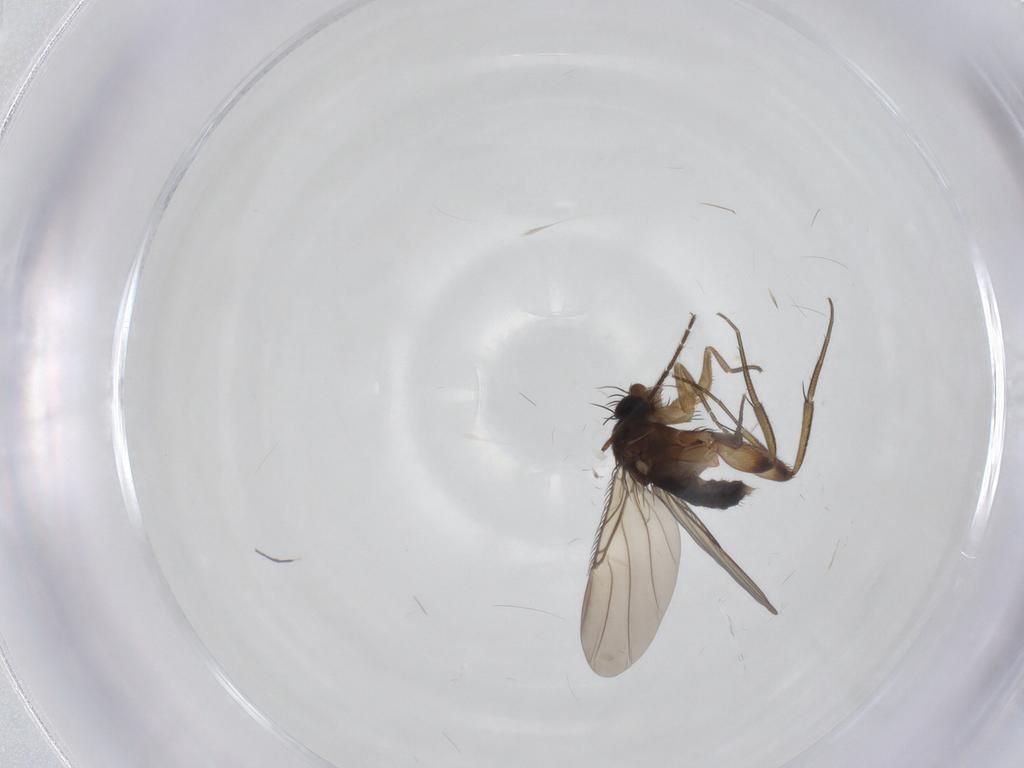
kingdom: Animalia
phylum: Arthropoda
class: Insecta
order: Diptera
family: Chironomidae
